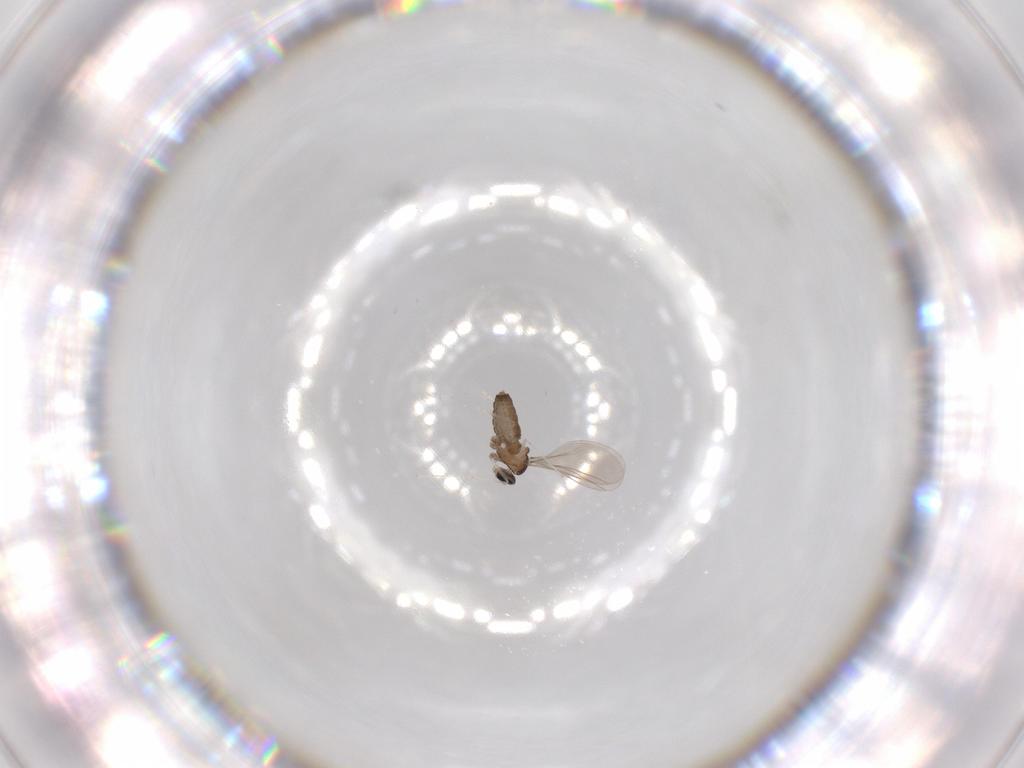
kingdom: Animalia
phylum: Arthropoda
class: Insecta
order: Diptera
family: Cecidomyiidae
